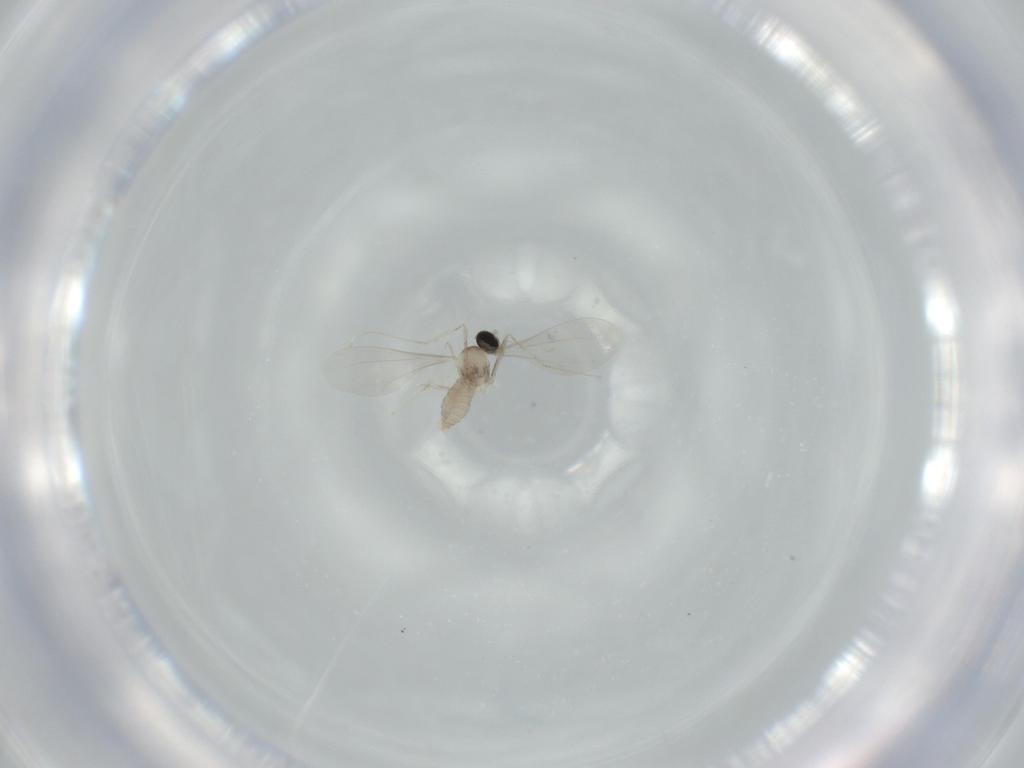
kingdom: Animalia
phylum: Arthropoda
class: Insecta
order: Diptera
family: Cecidomyiidae
